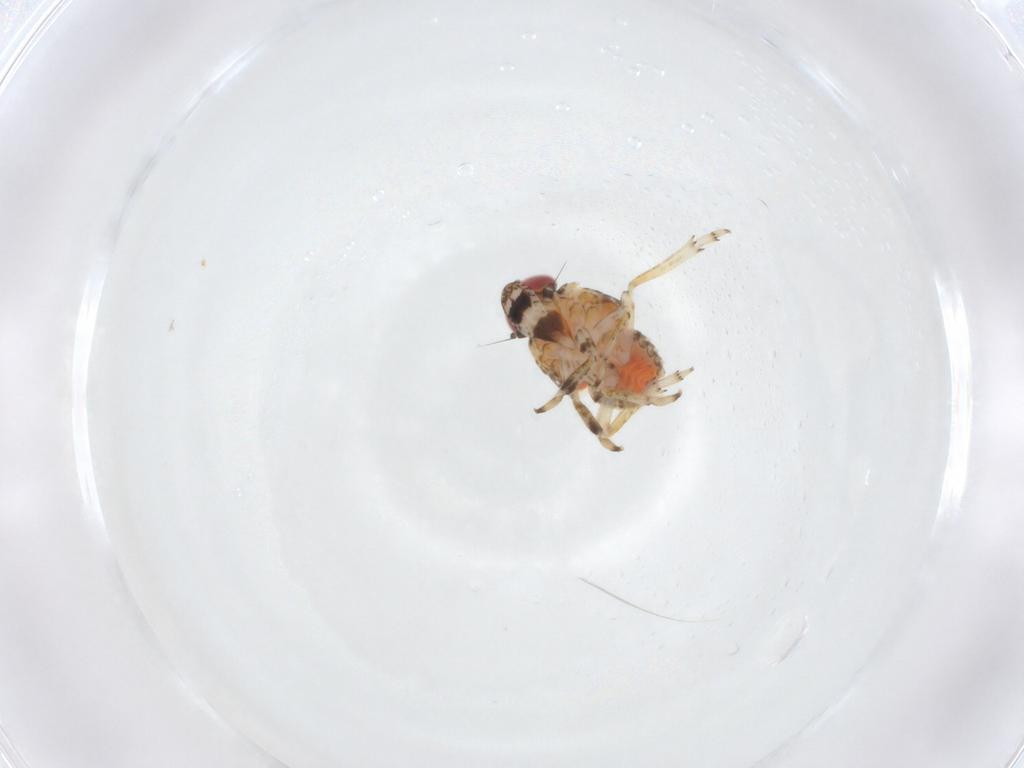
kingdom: Animalia
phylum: Arthropoda
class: Insecta
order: Hemiptera
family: Issidae
